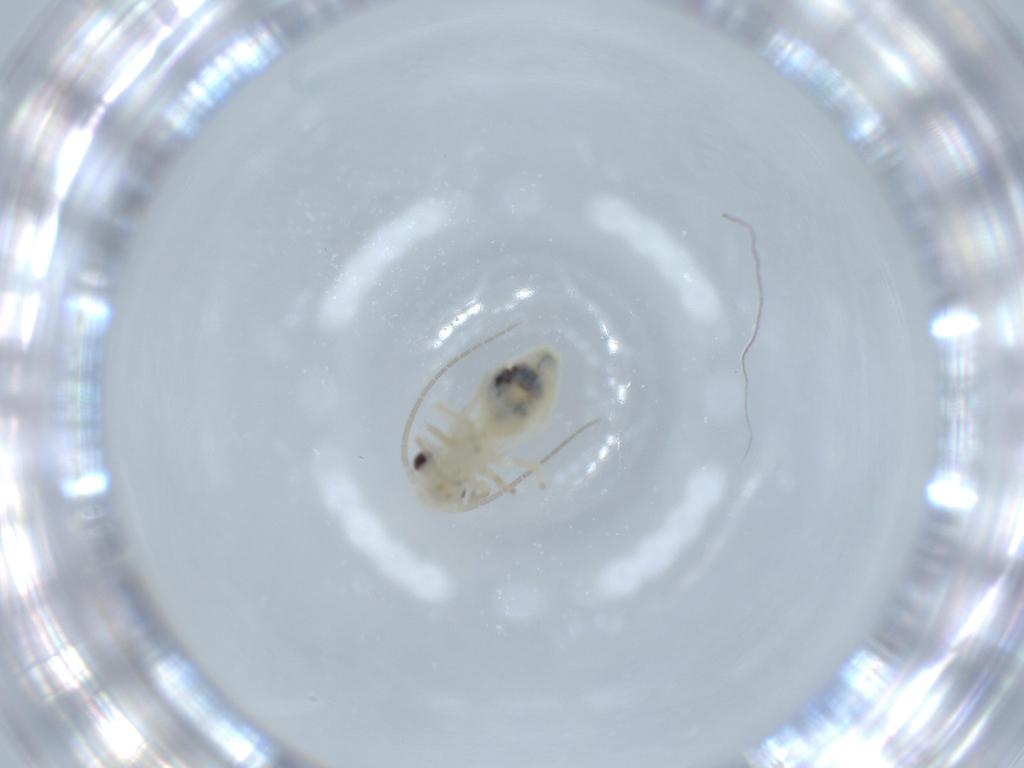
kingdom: Animalia
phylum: Arthropoda
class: Insecta
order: Psocodea
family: Caeciliusidae
